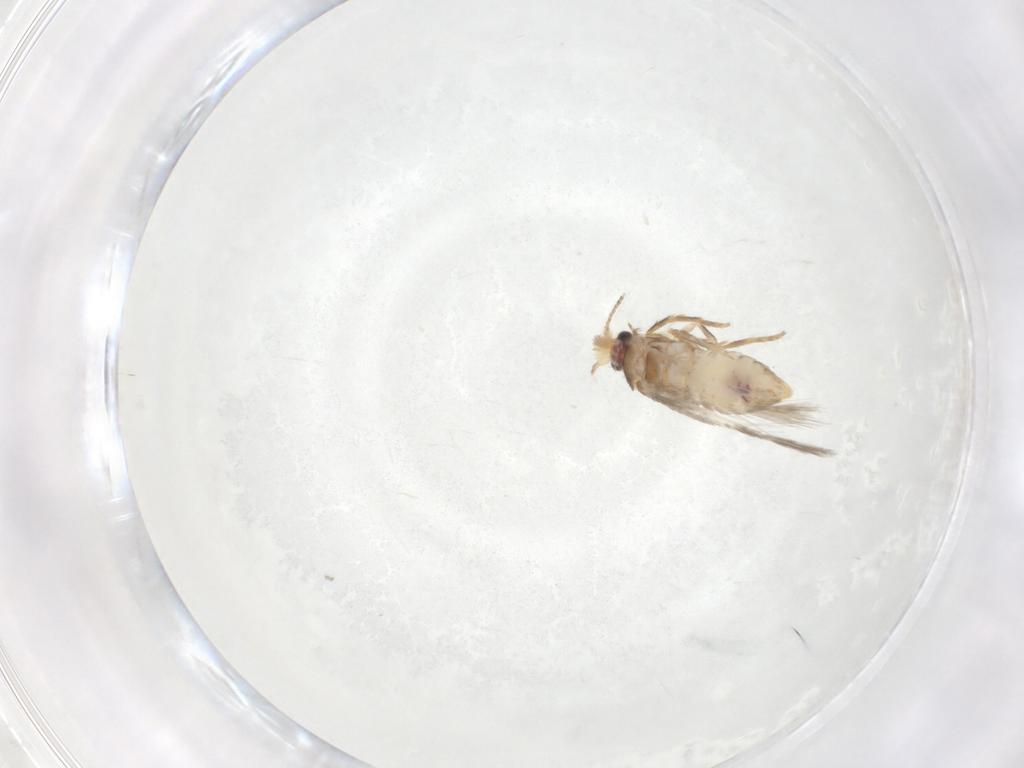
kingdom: Animalia
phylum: Arthropoda
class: Insecta
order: Lepidoptera
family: Nepticulidae
